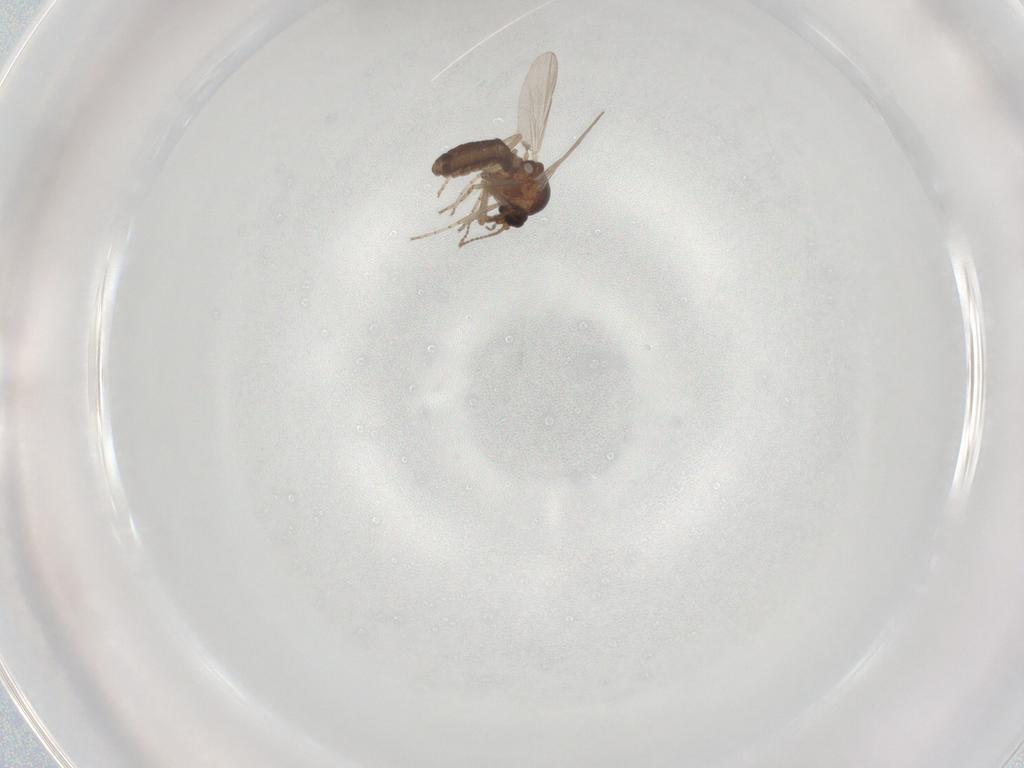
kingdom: Animalia
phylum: Arthropoda
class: Insecta
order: Diptera
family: Ceratopogonidae
